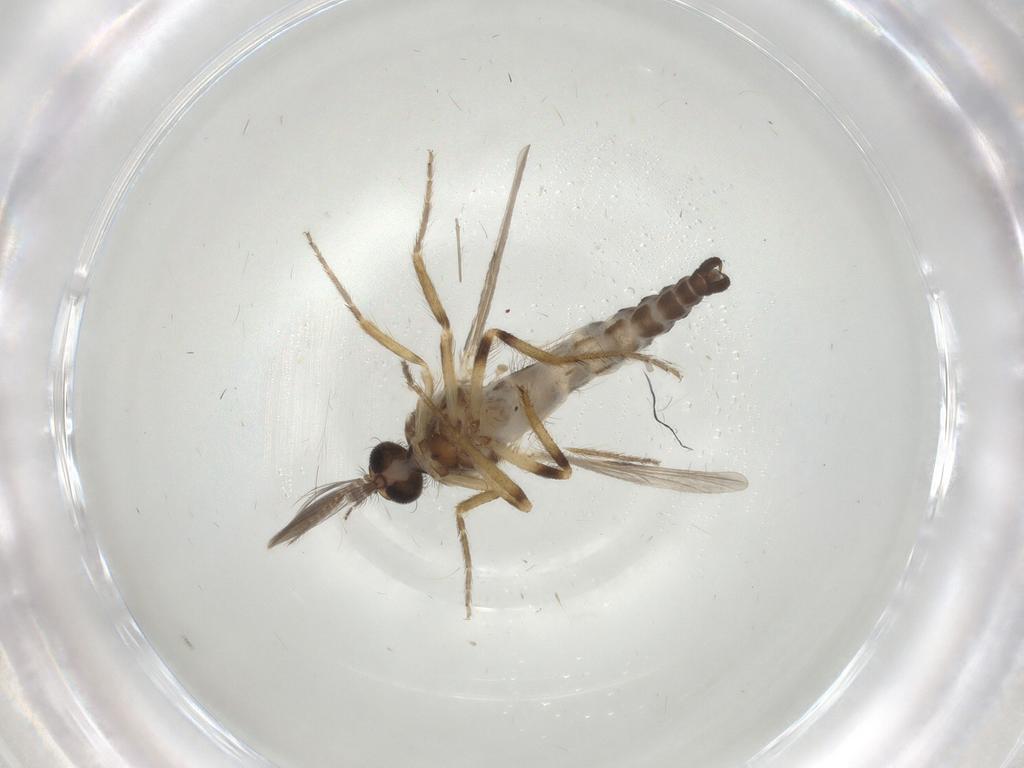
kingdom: Animalia
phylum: Arthropoda
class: Insecta
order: Diptera
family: Ceratopogonidae
